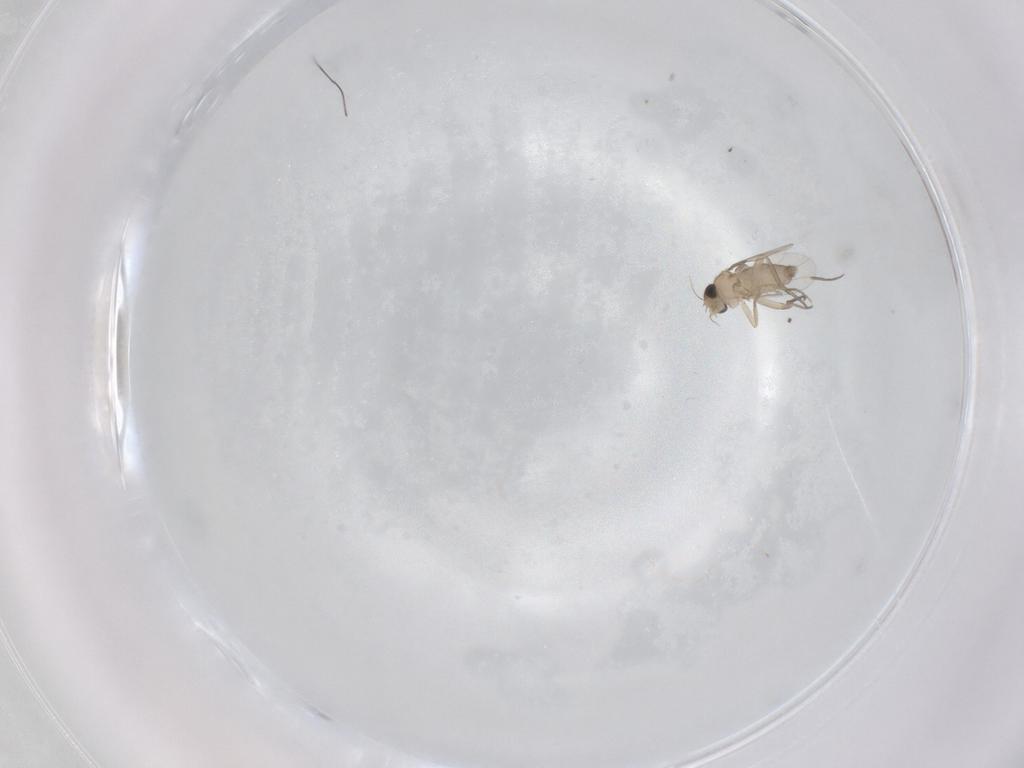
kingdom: Animalia
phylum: Arthropoda
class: Insecta
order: Diptera
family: Phoridae
